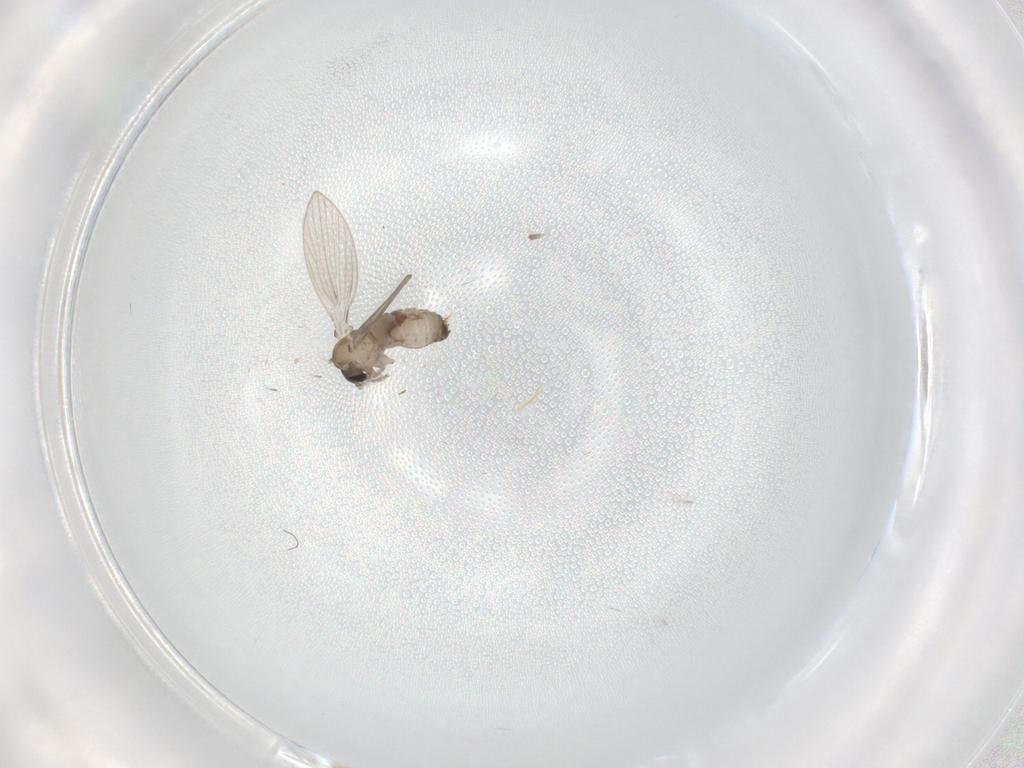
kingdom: Animalia
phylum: Arthropoda
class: Insecta
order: Diptera
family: Psychodidae
